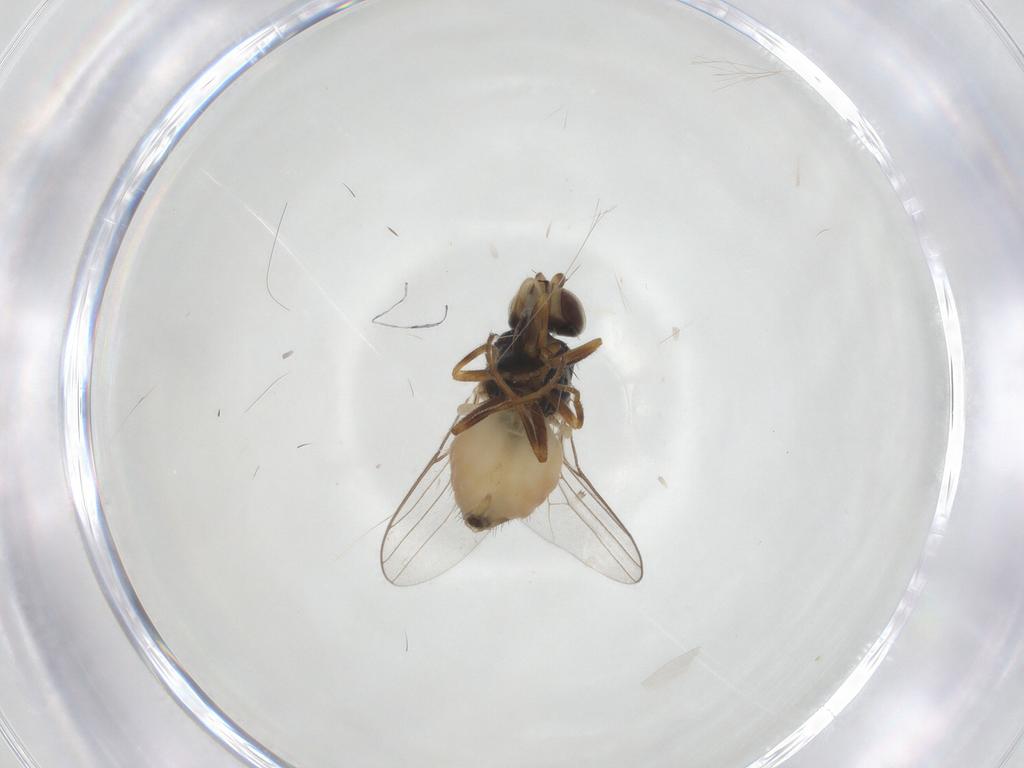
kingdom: Animalia
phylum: Arthropoda
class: Insecta
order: Diptera
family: Chloropidae
